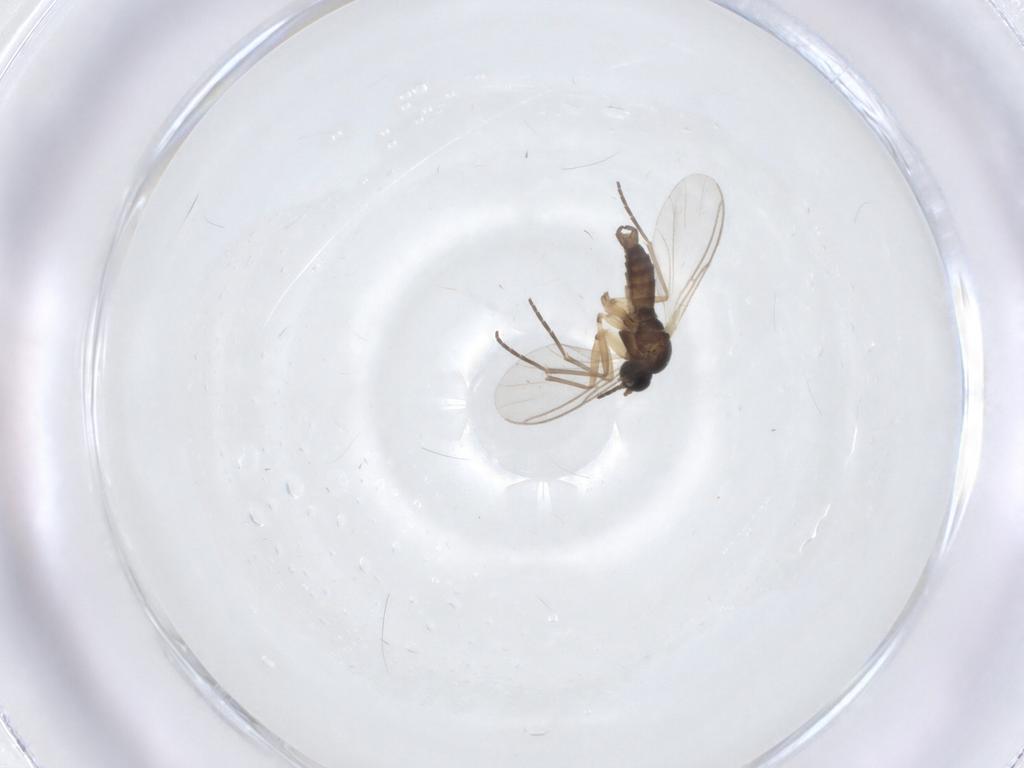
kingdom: Animalia
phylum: Arthropoda
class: Insecta
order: Diptera
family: Sciaridae
